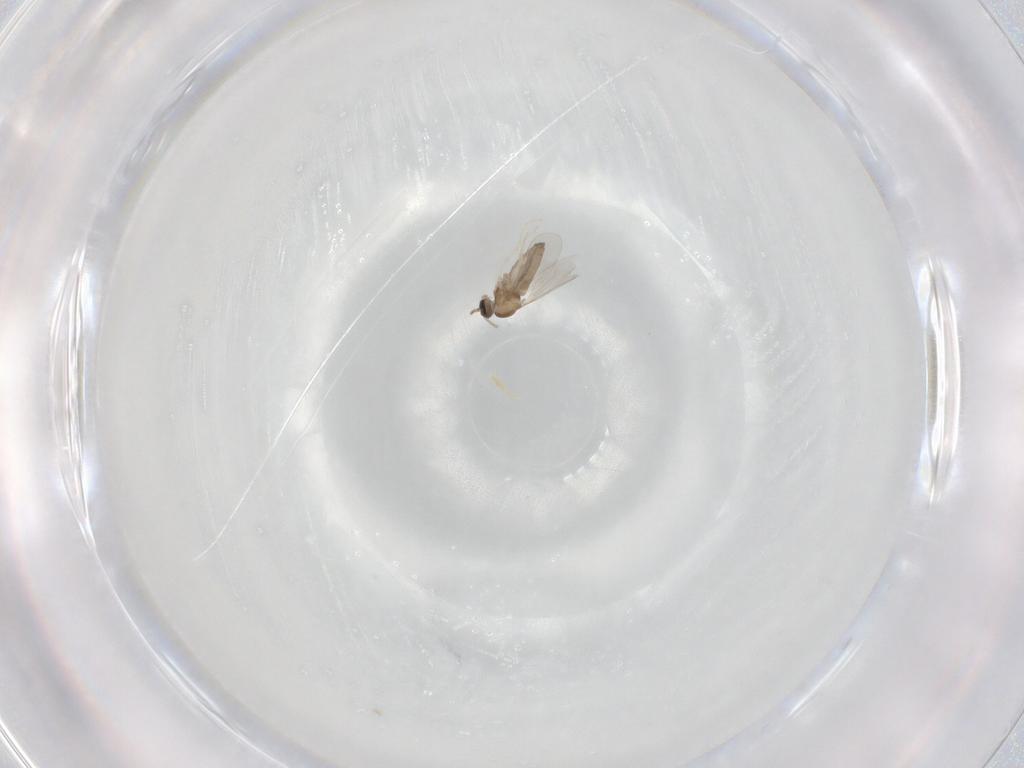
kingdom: Animalia
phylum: Arthropoda
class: Insecta
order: Diptera
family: Cecidomyiidae
